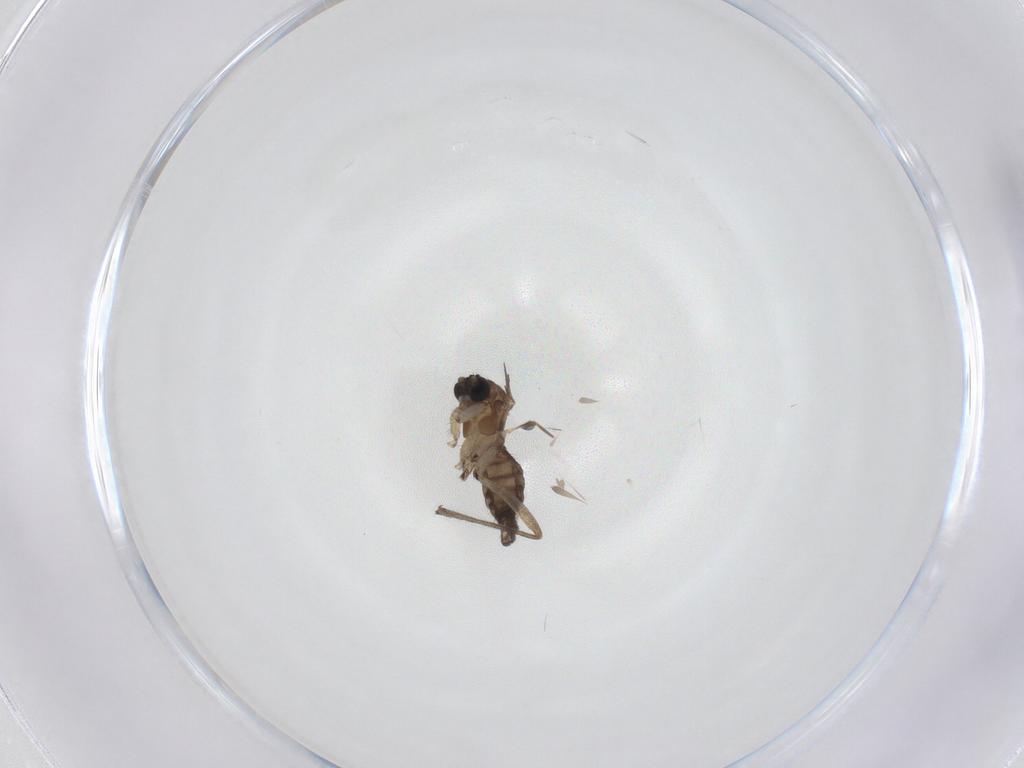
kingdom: Animalia
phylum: Arthropoda
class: Insecta
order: Diptera
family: Sciaridae
